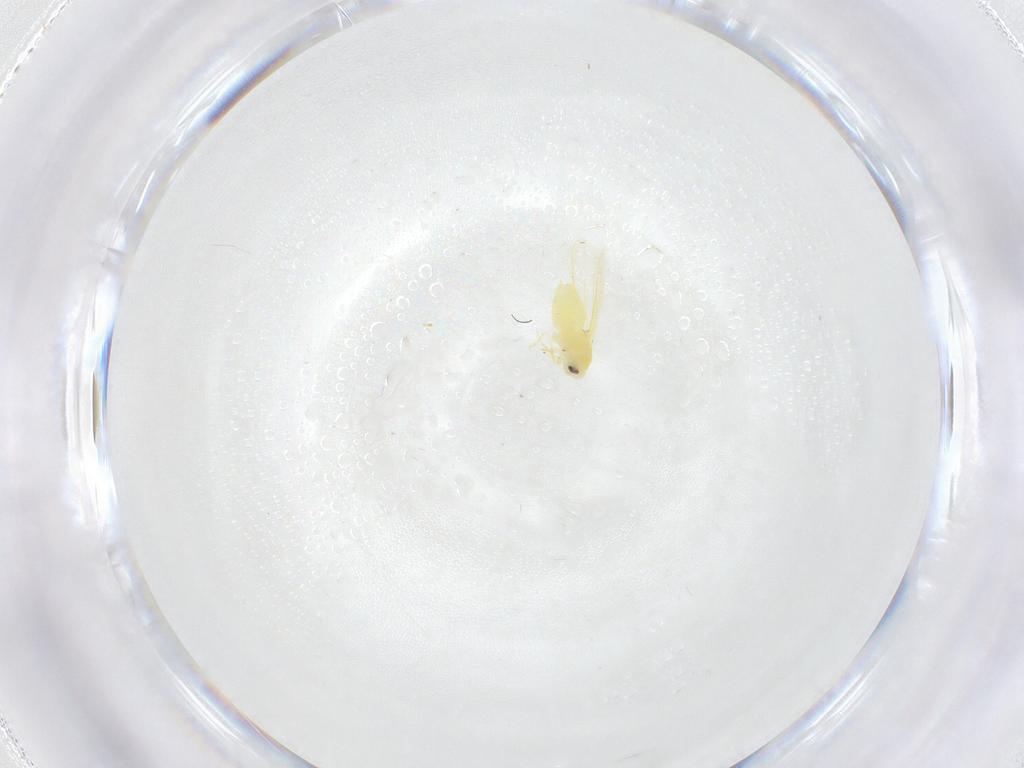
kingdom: Animalia
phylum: Arthropoda
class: Insecta
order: Hemiptera
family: Aleyrodidae
